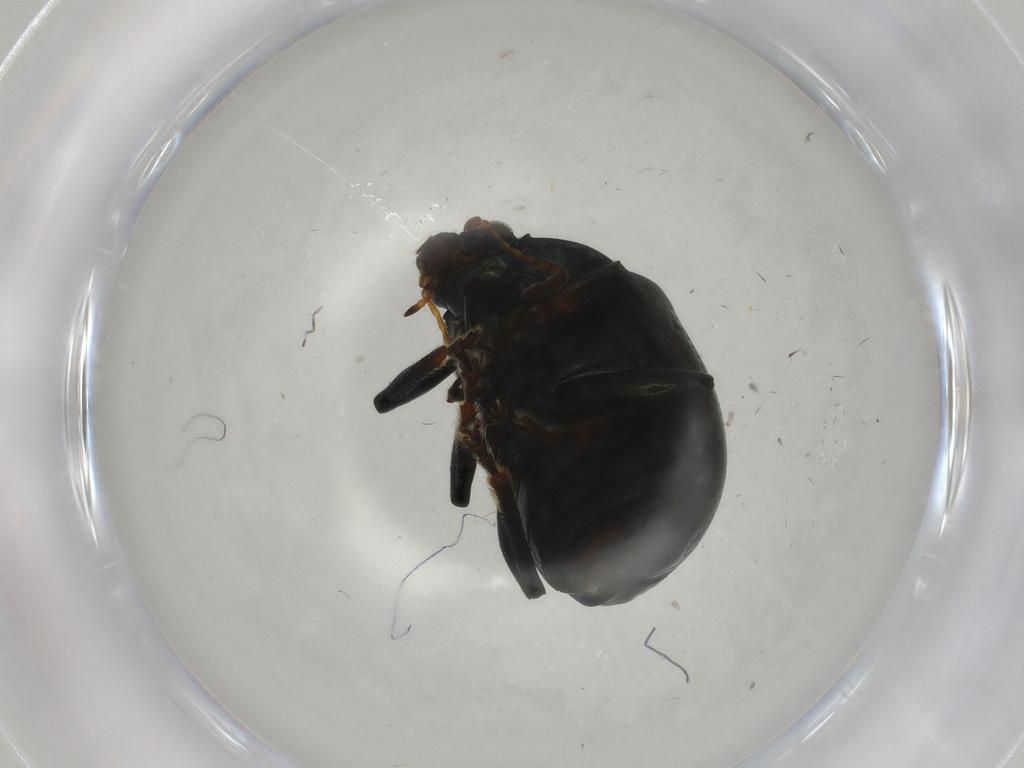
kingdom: Animalia
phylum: Arthropoda
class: Insecta
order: Coleoptera
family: Chrysomelidae
